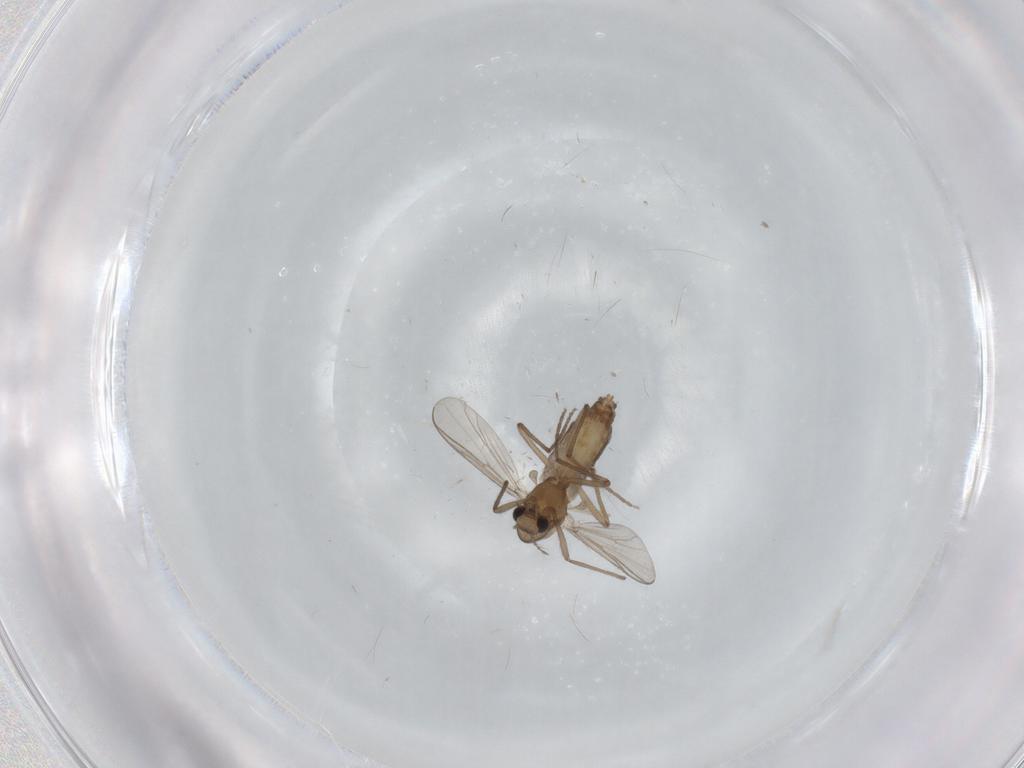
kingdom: Animalia
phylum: Arthropoda
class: Insecta
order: Diptera
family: Chironomidae
